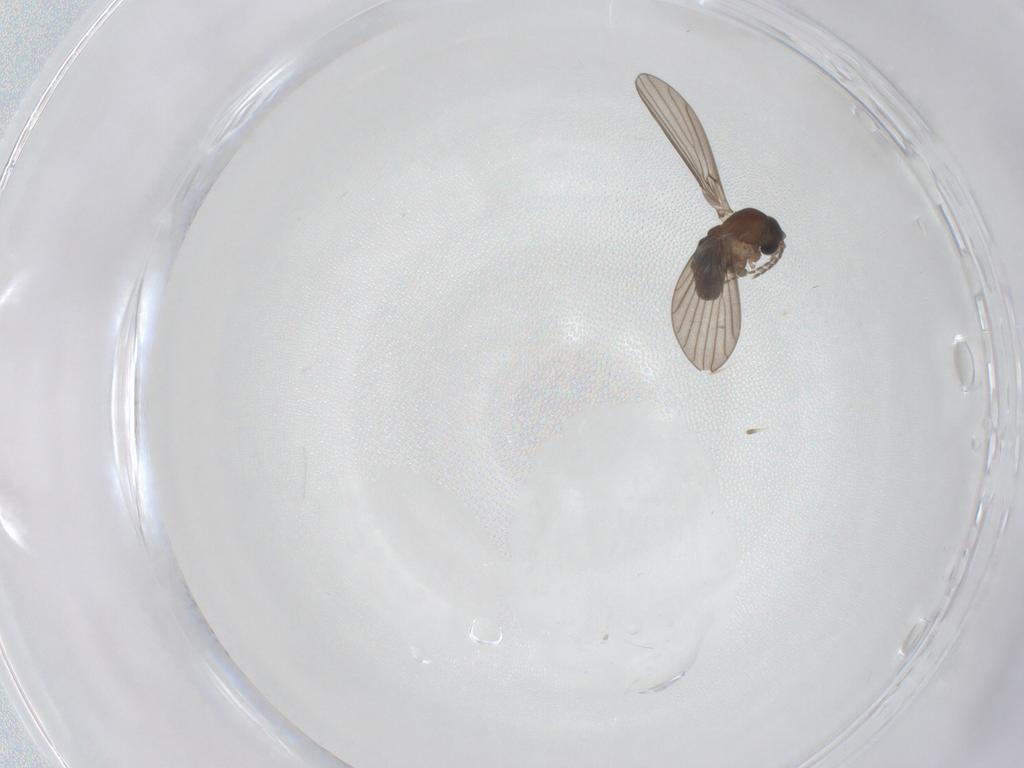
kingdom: Animalia
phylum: Arthropoda
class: Insecta
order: Diptera
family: Psychodidae
